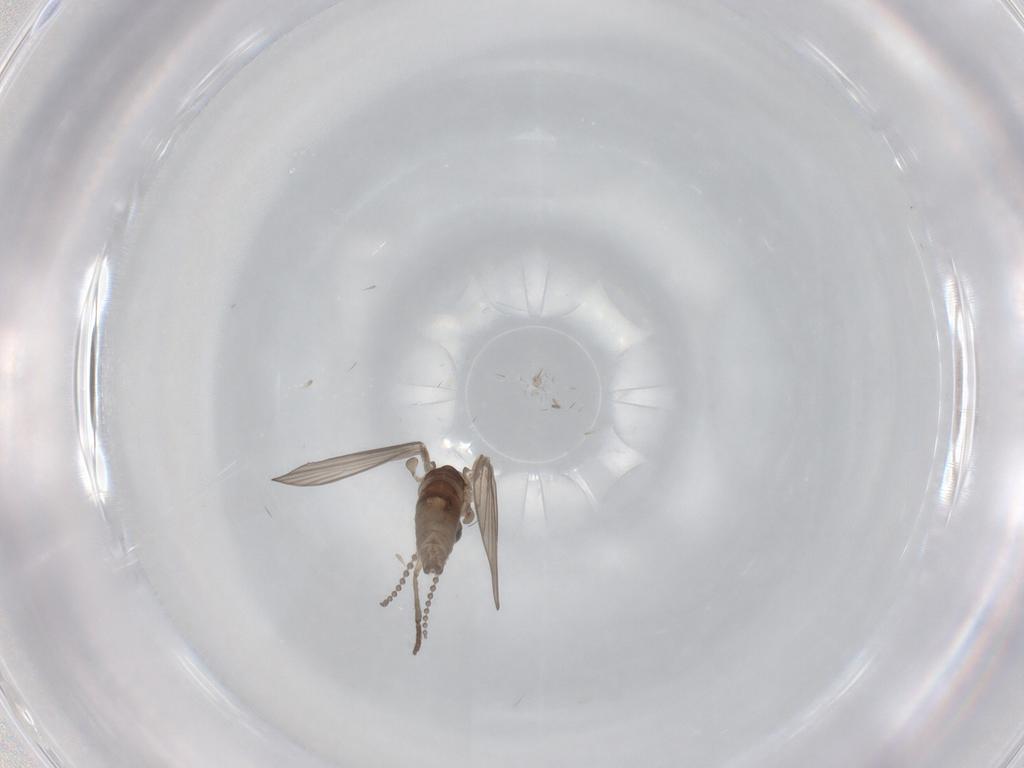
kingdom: Animalia
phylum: Arthropoda
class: Insecta
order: Diptera
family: Psychodidae
